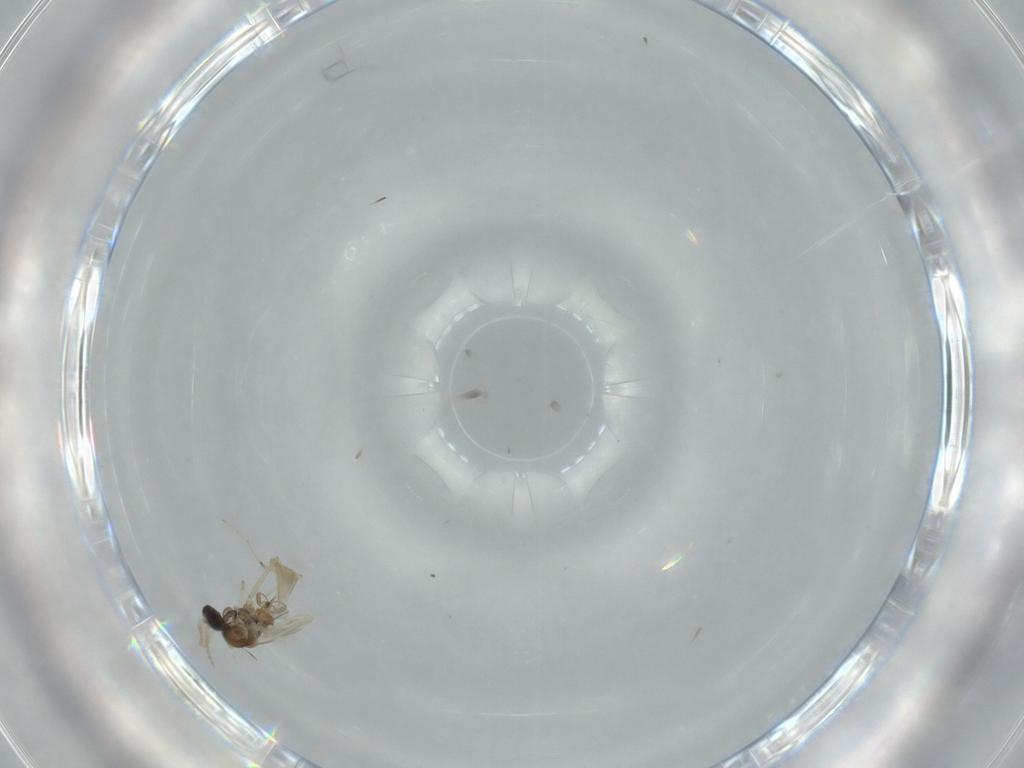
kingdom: Animalia
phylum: Arthropoda
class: Insecta
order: Diptera
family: Cecidomyiidae
